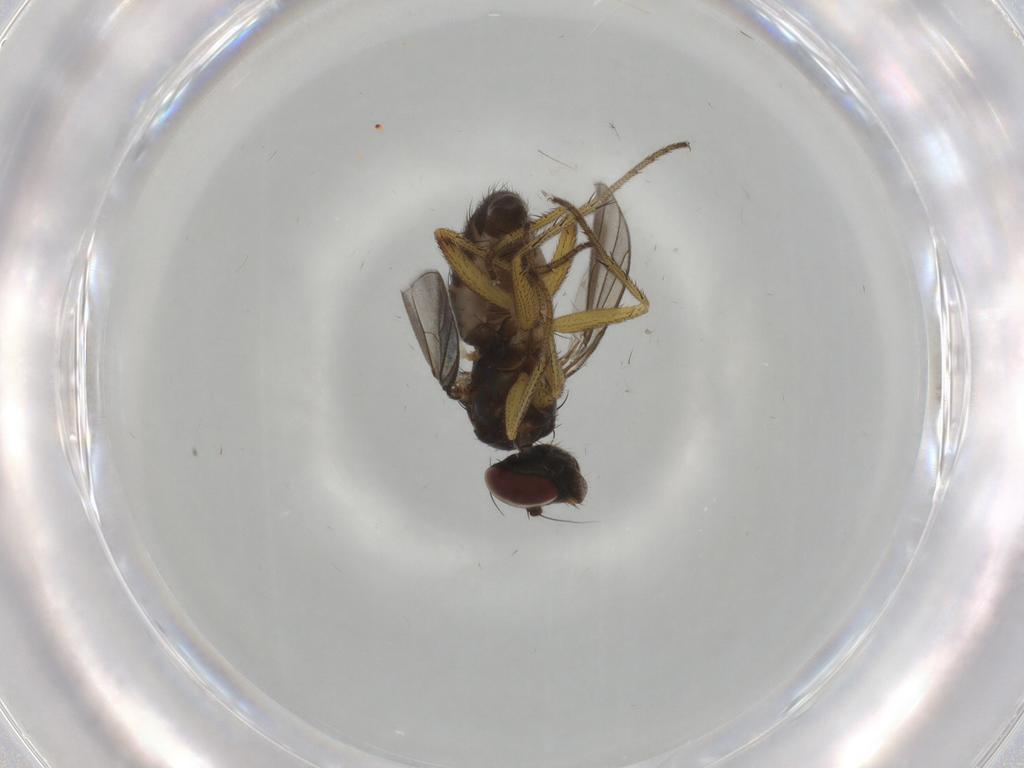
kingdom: Animalia
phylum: Arthropoda
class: Insecta
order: Diptera
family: Dolichopodidae
